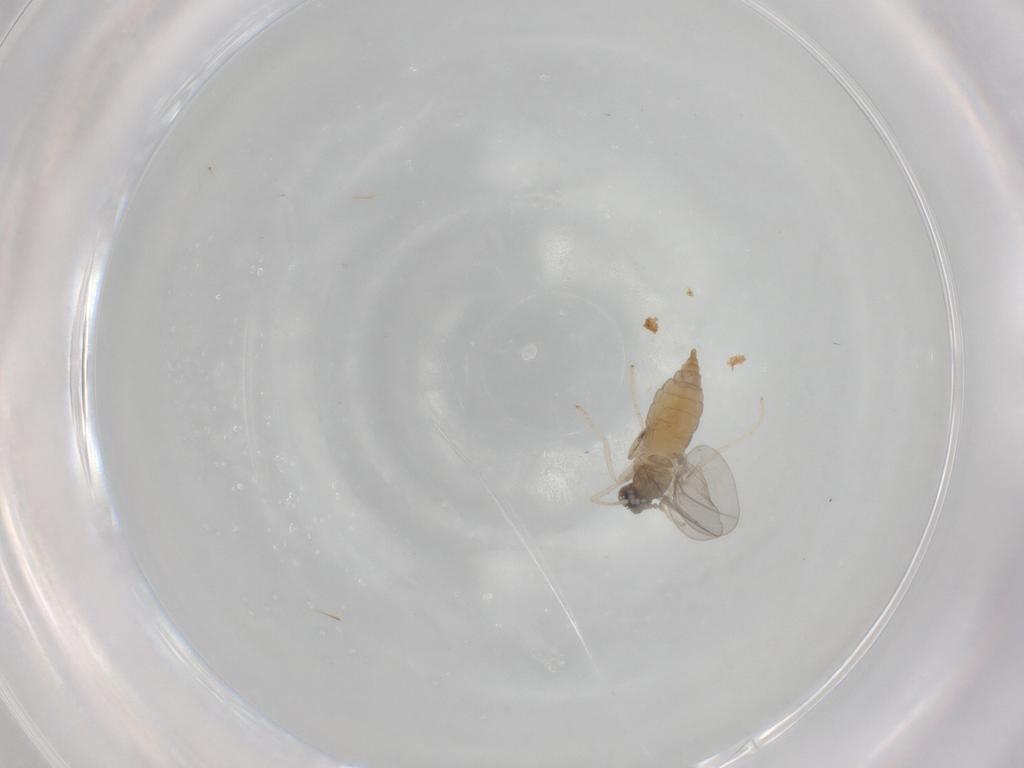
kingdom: Animalia
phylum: Arthropoda
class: Insecta
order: Diptera
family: Cecidomyiidae
